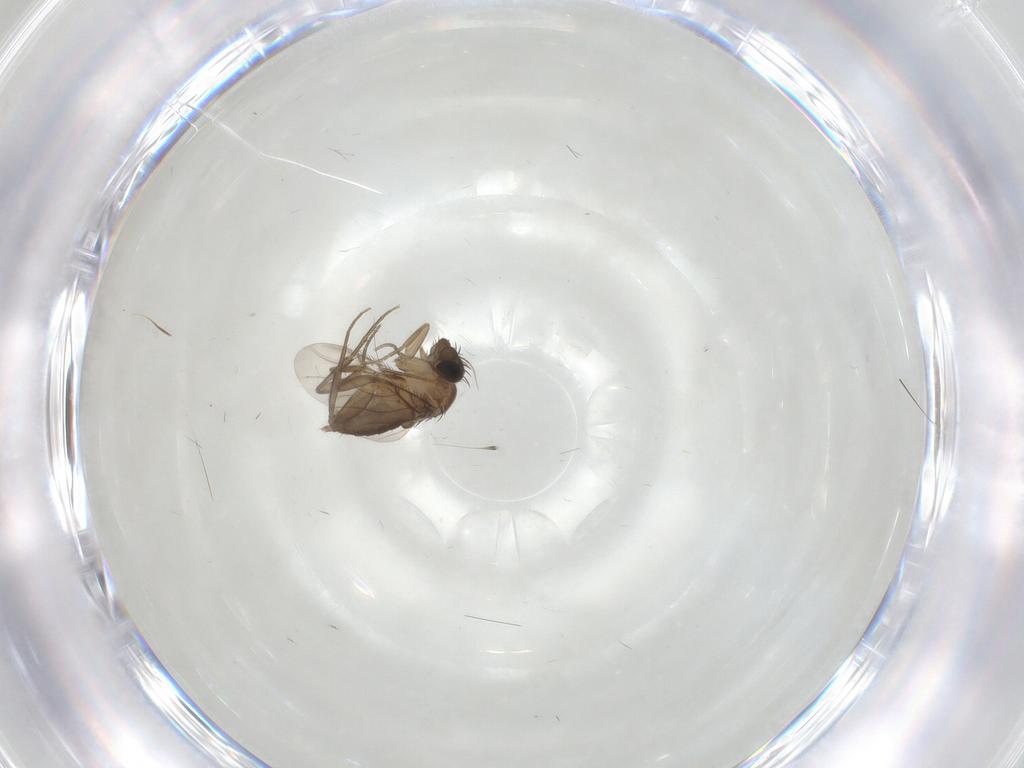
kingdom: Animalia
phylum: Arthropoda
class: Insecta
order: Diptera
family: Phoridae
